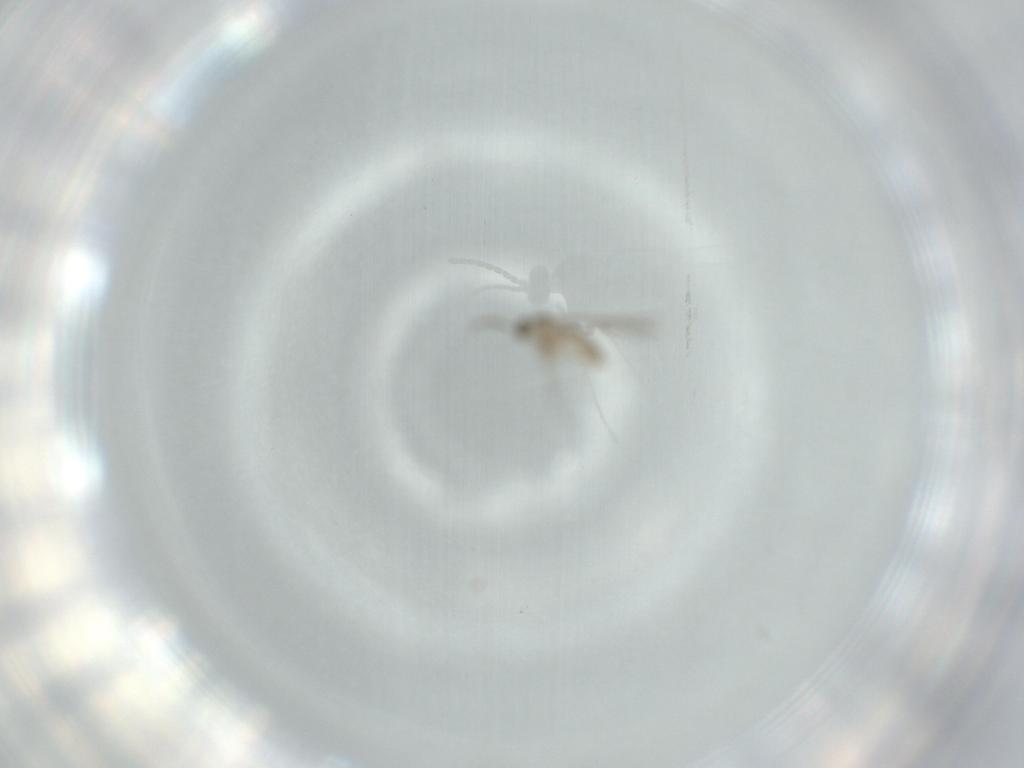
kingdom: Animalia
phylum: Arthropoda
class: Insecta
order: Diptera
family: Cecidomyiidae
